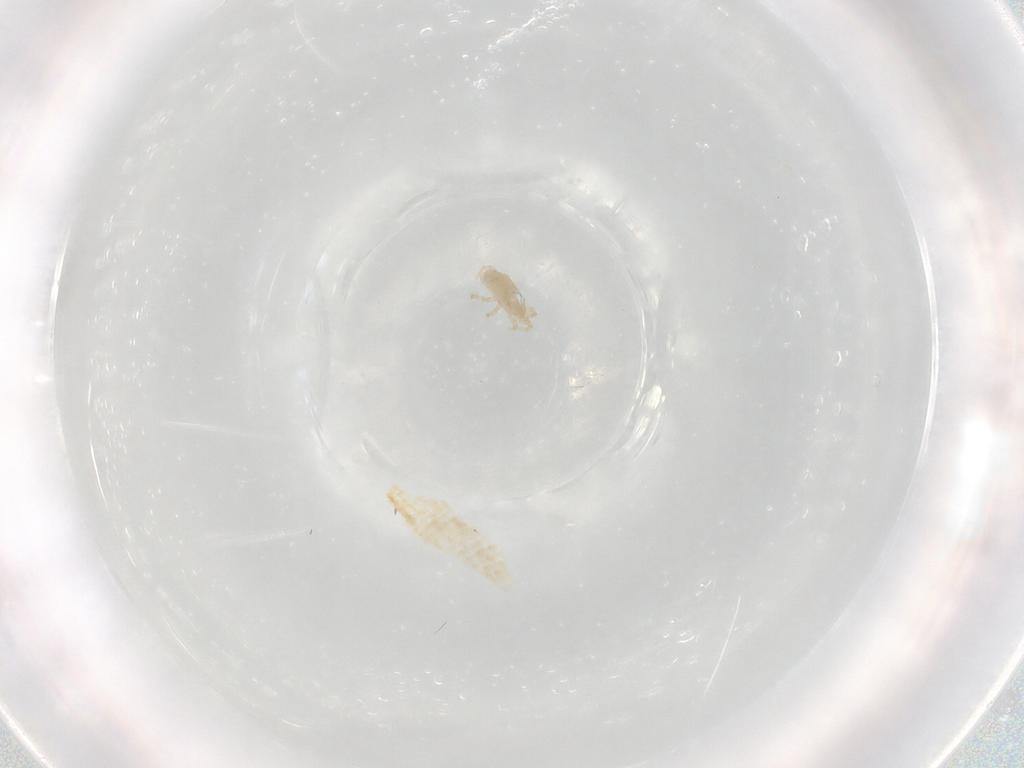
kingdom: Animalia
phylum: Arthropoda
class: Arachnida
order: Mesostigmata
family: Melicharidae
